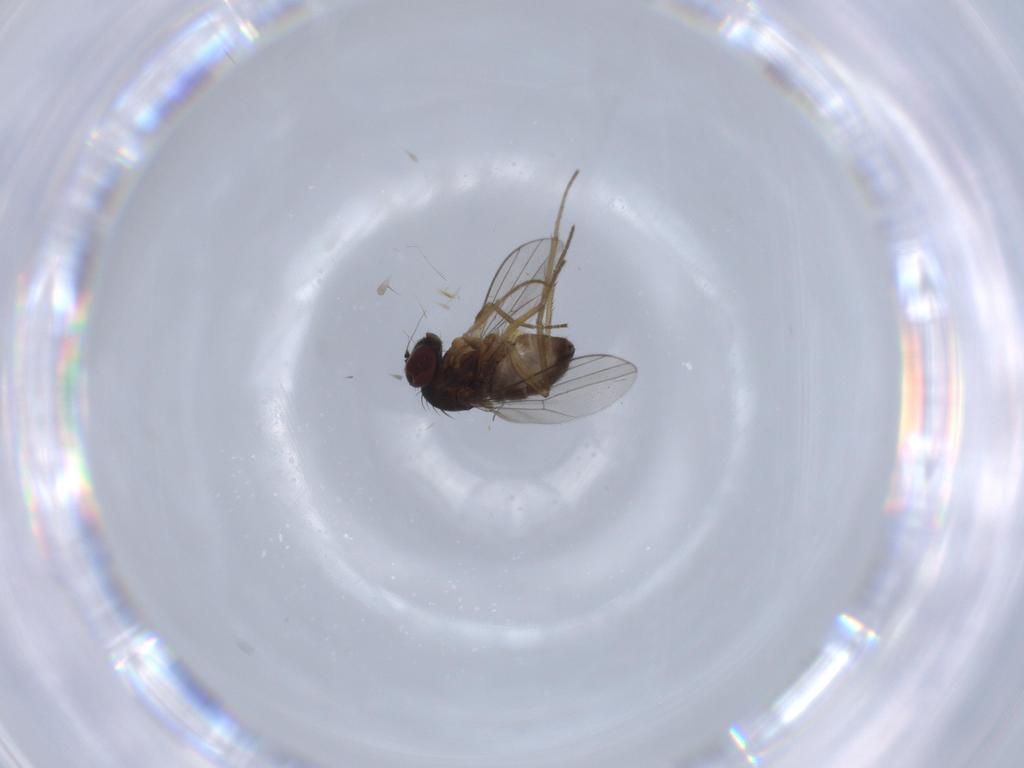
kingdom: Animalia
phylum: Arthropoda
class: Insecta
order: Diptera
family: Dolichopodidae
